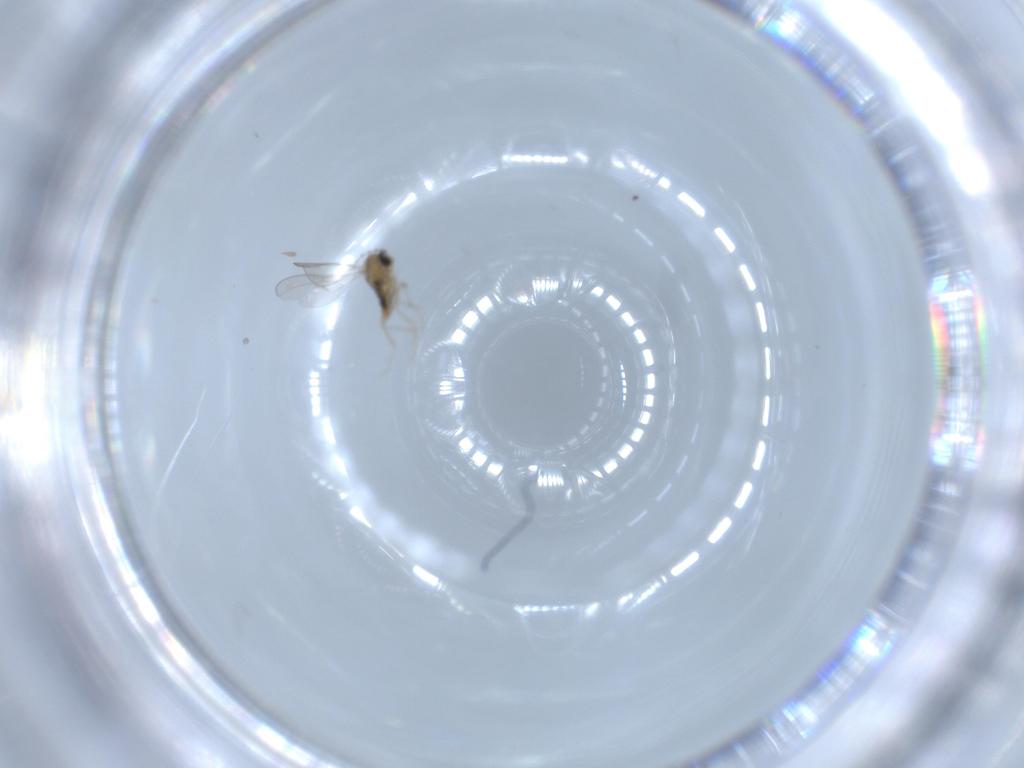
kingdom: Animalia
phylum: Arthropoda
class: Insecta
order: Diptera
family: Cecidomyiidae
